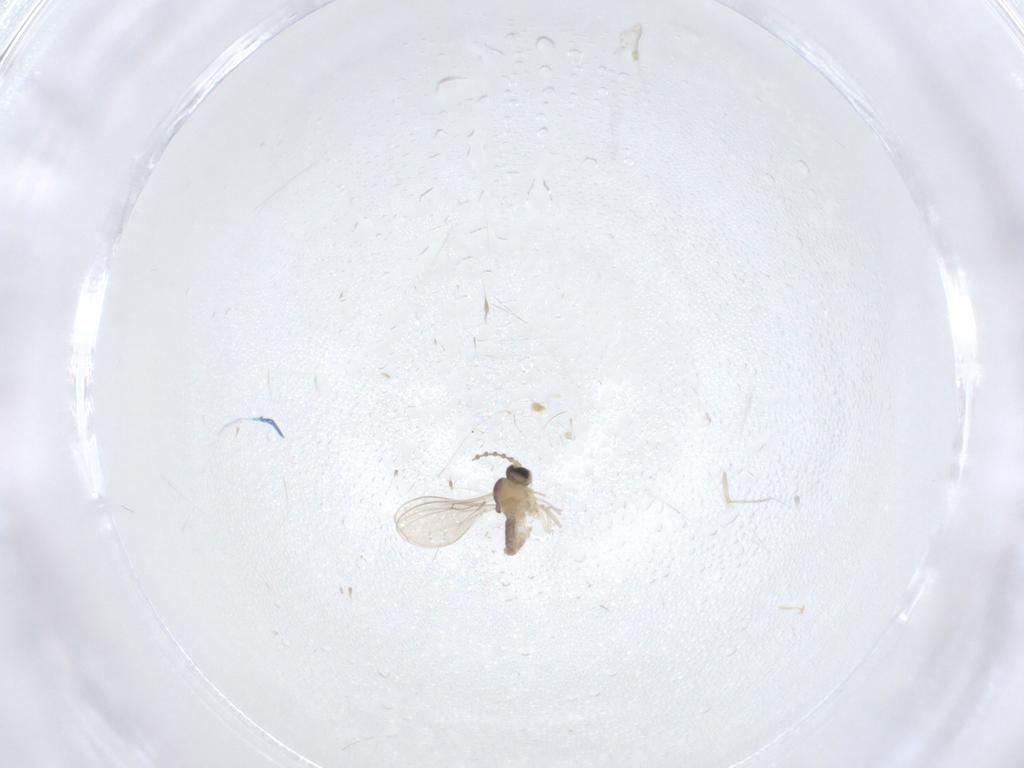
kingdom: Animalia
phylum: Arthropoda
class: Insecta
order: Diptera
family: Cecidomyiidae
